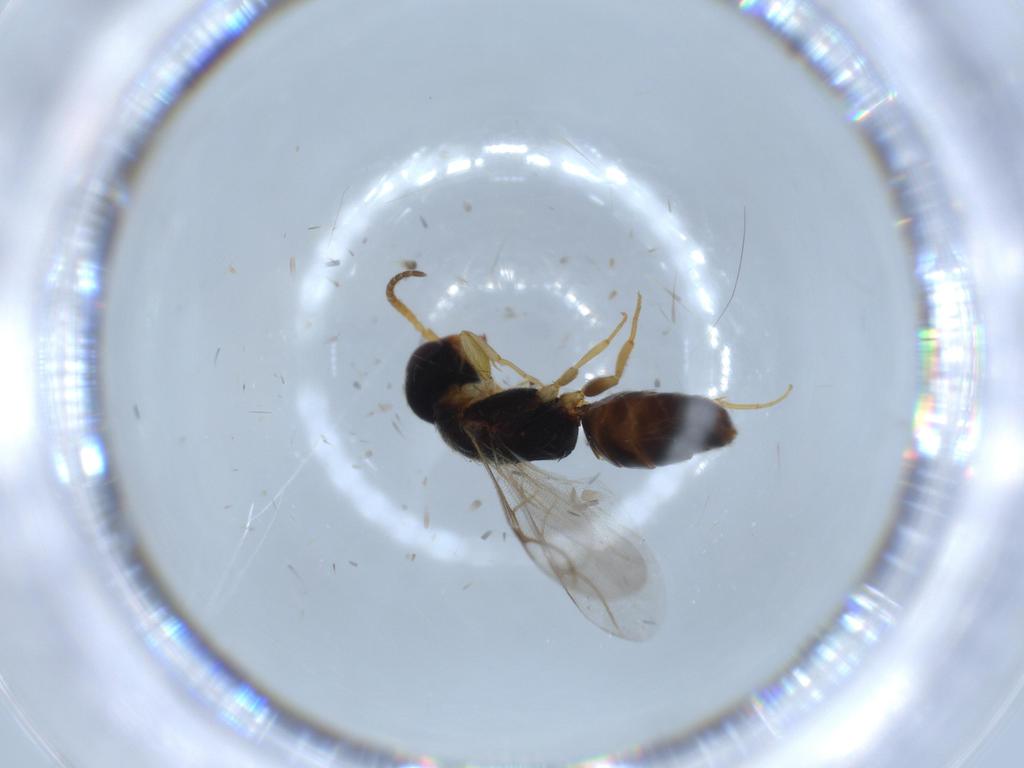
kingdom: Animalia
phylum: Arthropoda
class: Insecta
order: Hymenoptera
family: Bethylidae
